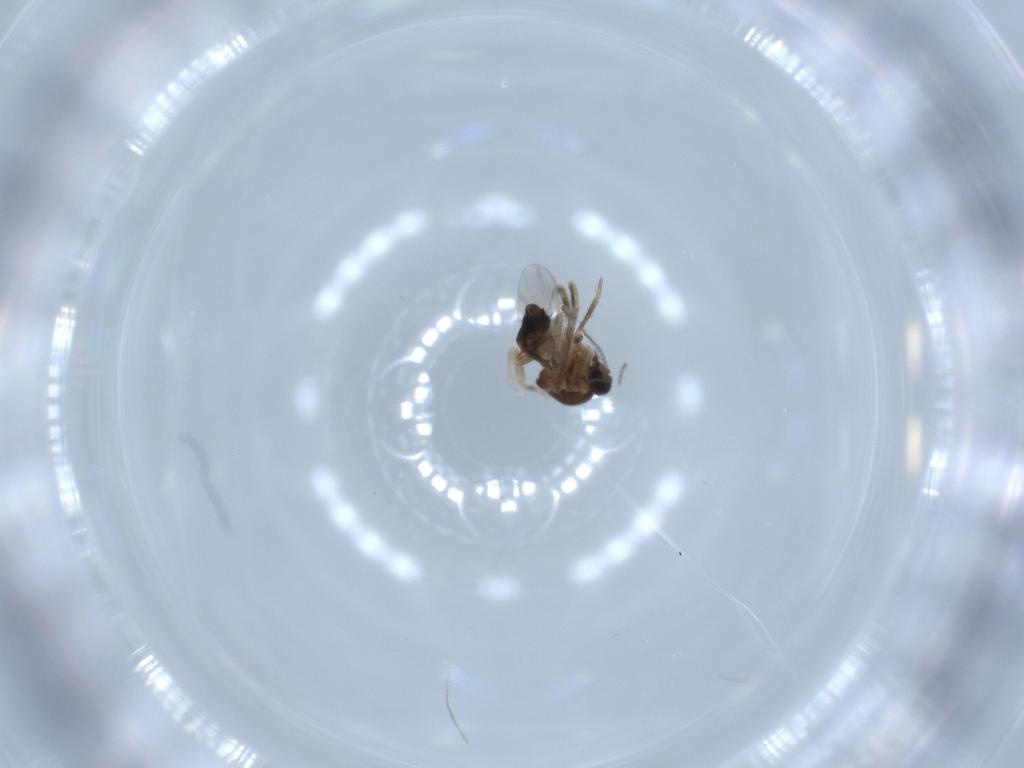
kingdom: Animalia
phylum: Arthropoda
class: Insecta
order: Diptera
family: Ceratopogonidae
